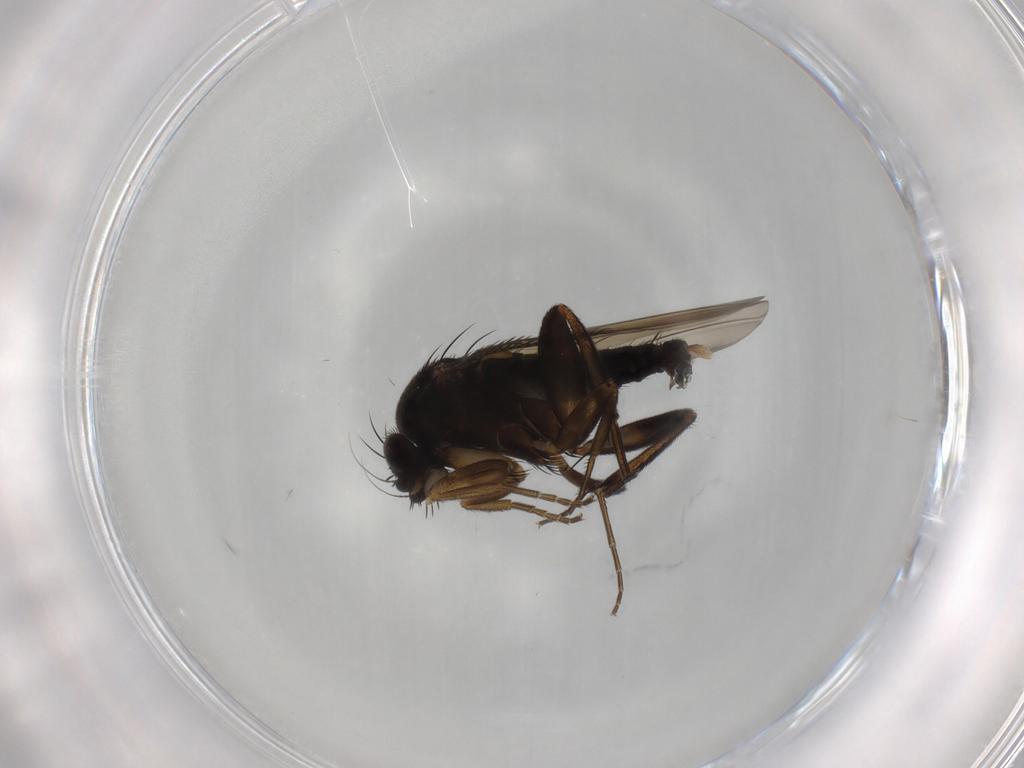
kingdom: Animalia
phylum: Arthropoda
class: Insecta
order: Diptera
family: Phoridae
